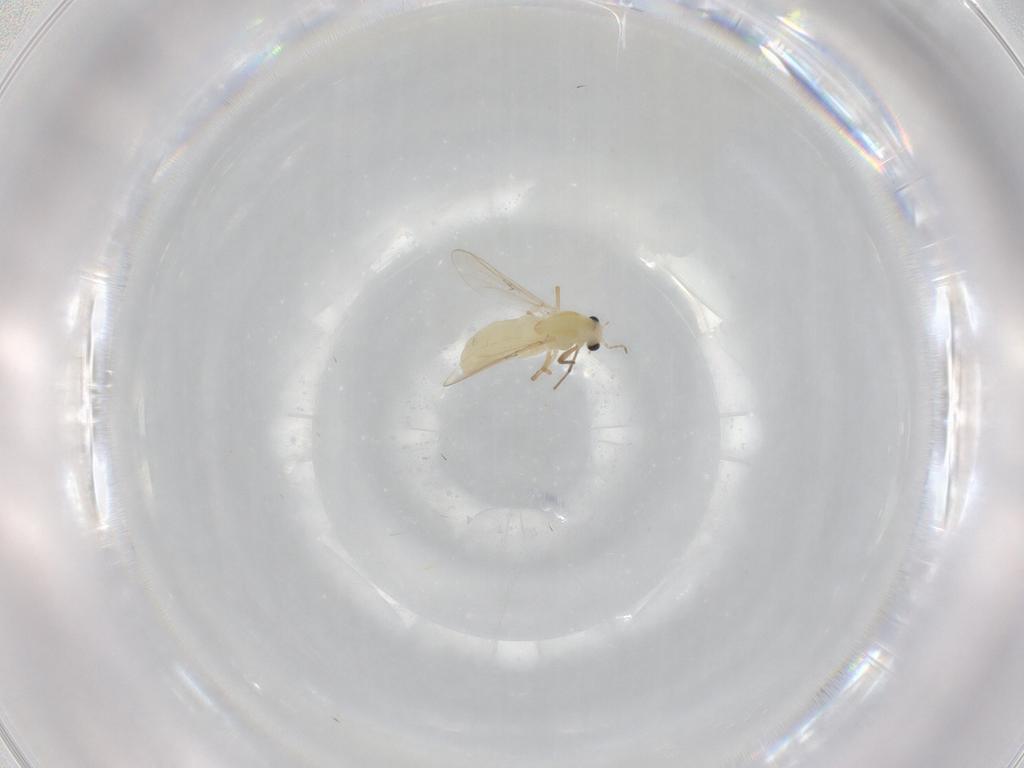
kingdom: Animalia
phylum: Arthropoda
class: Insecta
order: Diptera
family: Chironomidae
